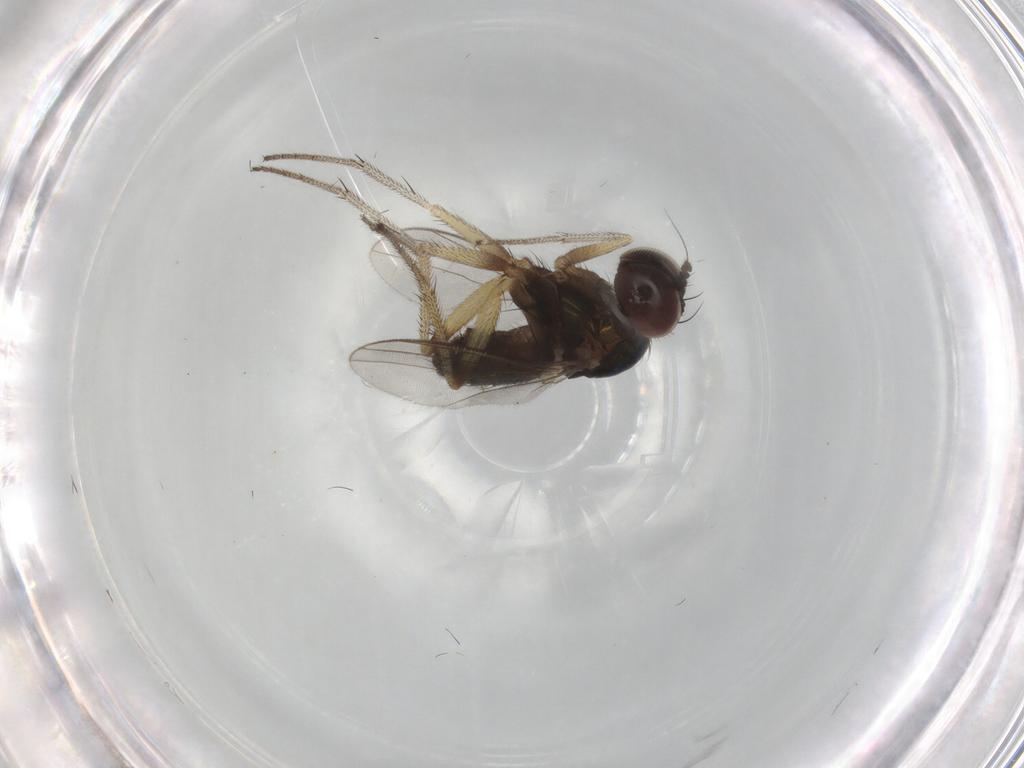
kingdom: Animalia
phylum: Arthropoda
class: Insecta
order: Diptera
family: Dolichopodidae
